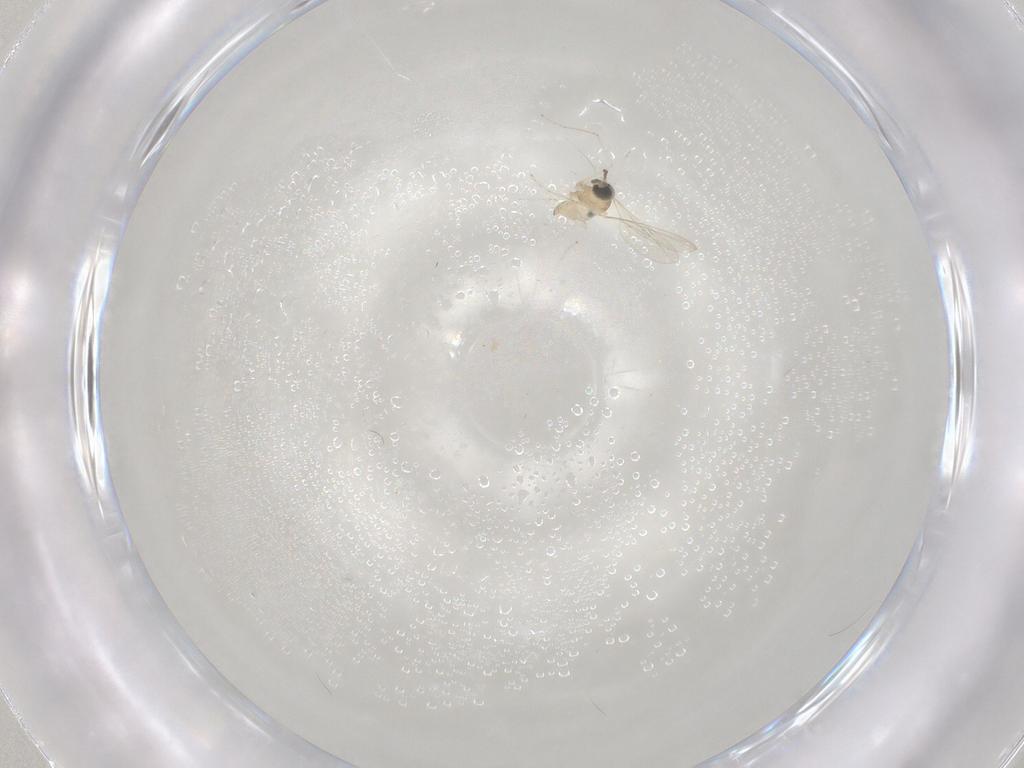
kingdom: Animalia
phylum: Arthropoda
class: Insecta
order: Diptera
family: Cecidomyiidae
